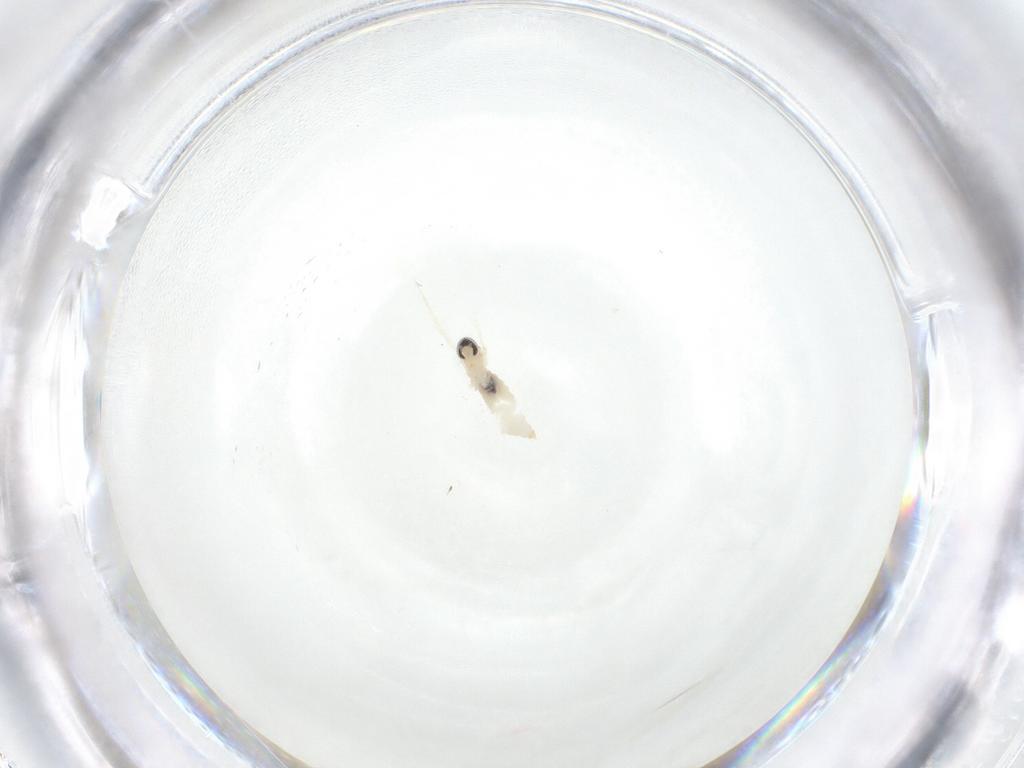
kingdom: Animalia
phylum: Arthropoda
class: Insecta
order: Diptera
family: Cecidomyiidae
